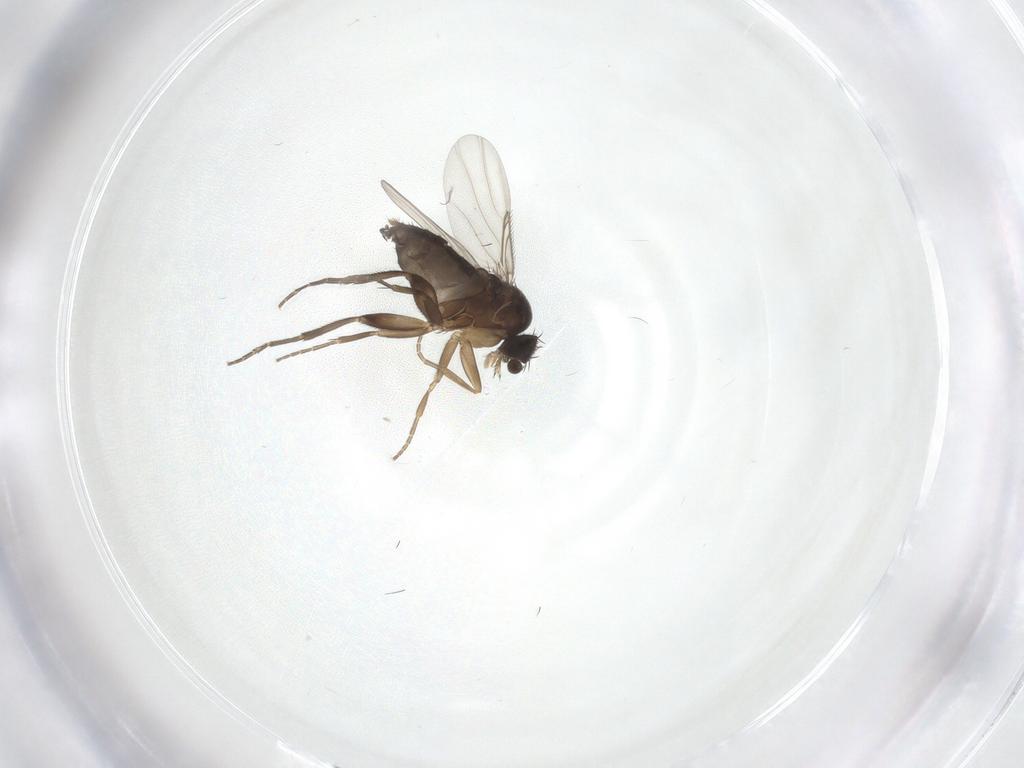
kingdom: Animalia
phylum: Arthropoda
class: Insecta
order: Diptera
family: Phoridae
